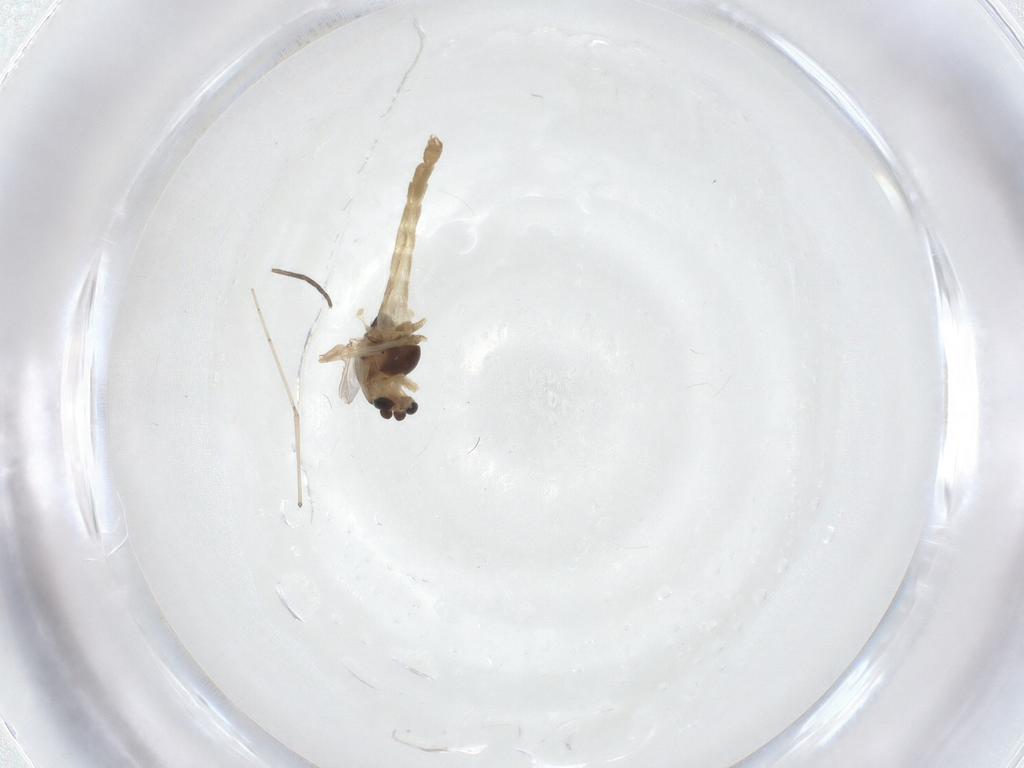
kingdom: Animalia
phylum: Arthropoda
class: Insecta
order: Diptera
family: Chironomidae
